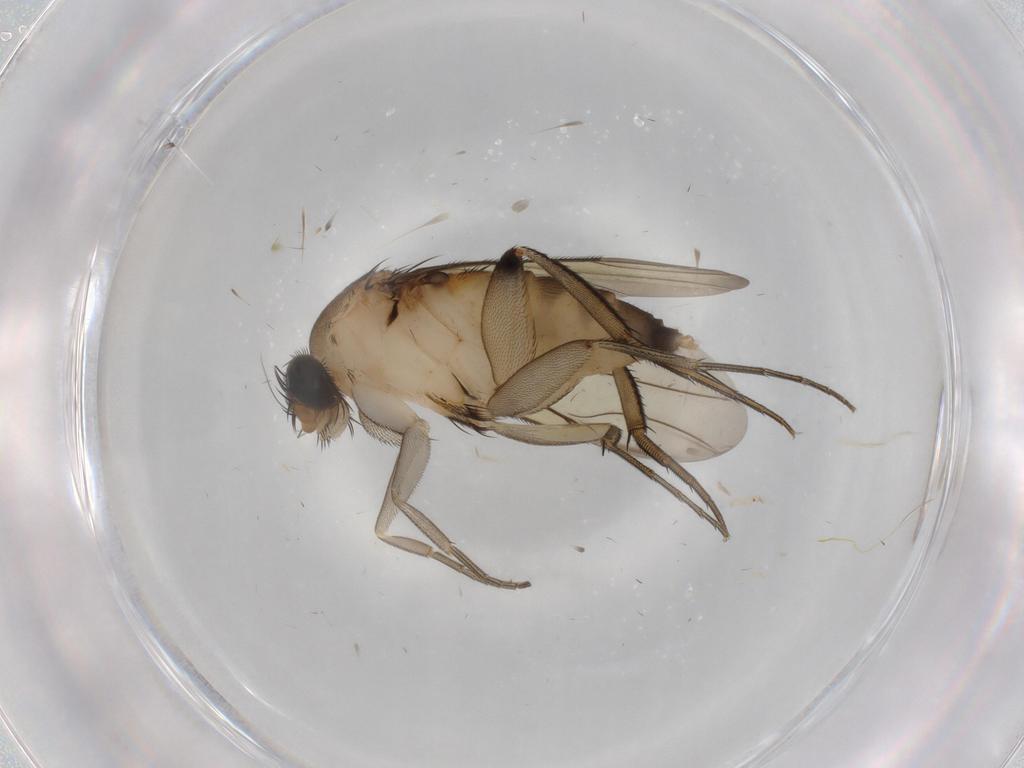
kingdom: Animalia
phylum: Arthropoda
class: Insecta
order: Diptera
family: Phoridae
